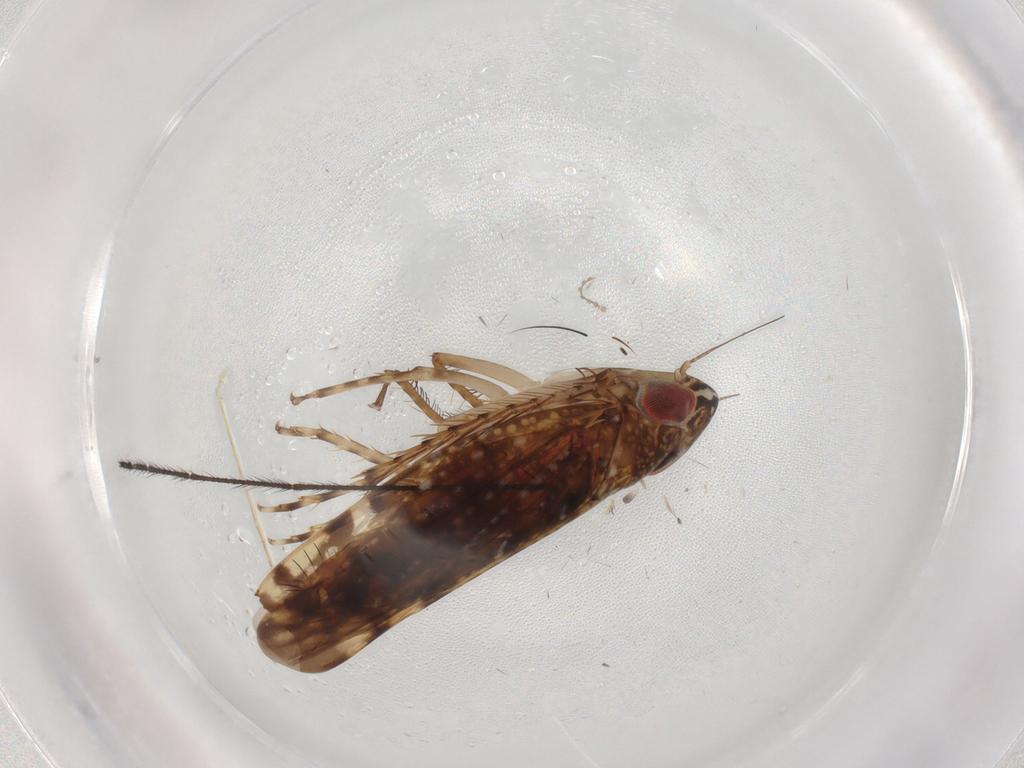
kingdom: Animalia
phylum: Arthropoda
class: Insecta
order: Hemiptera
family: Cicadellidae
